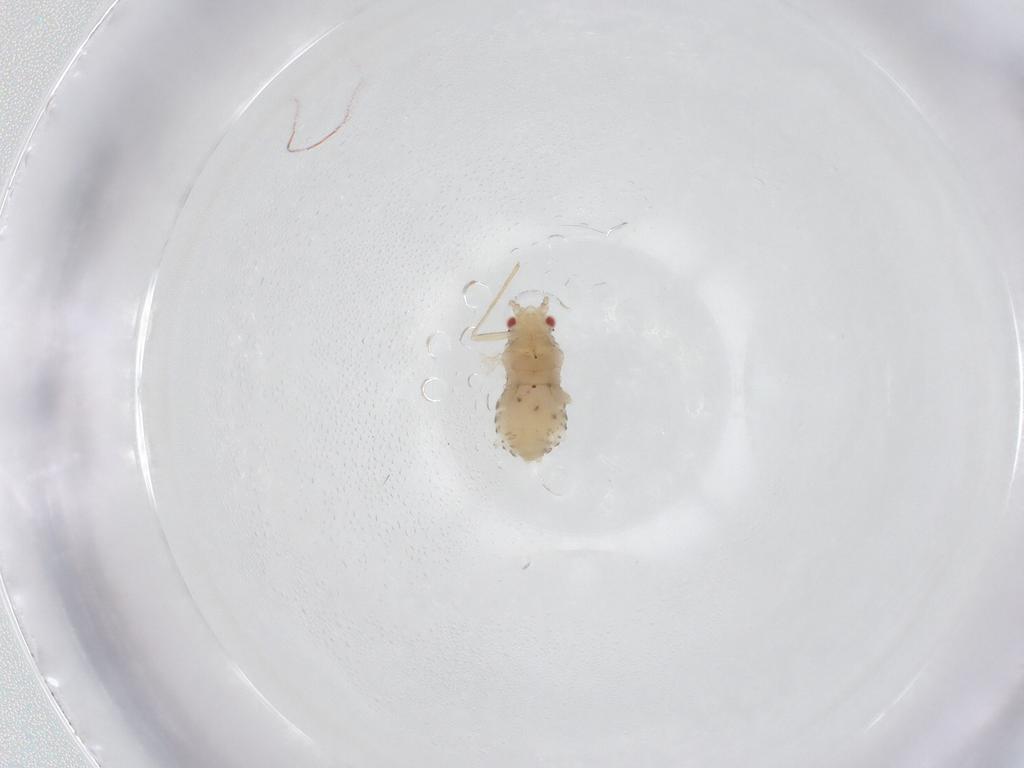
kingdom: Animalia
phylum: Arthropoda
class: Insecta
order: Hemiptera
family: Aphididae
